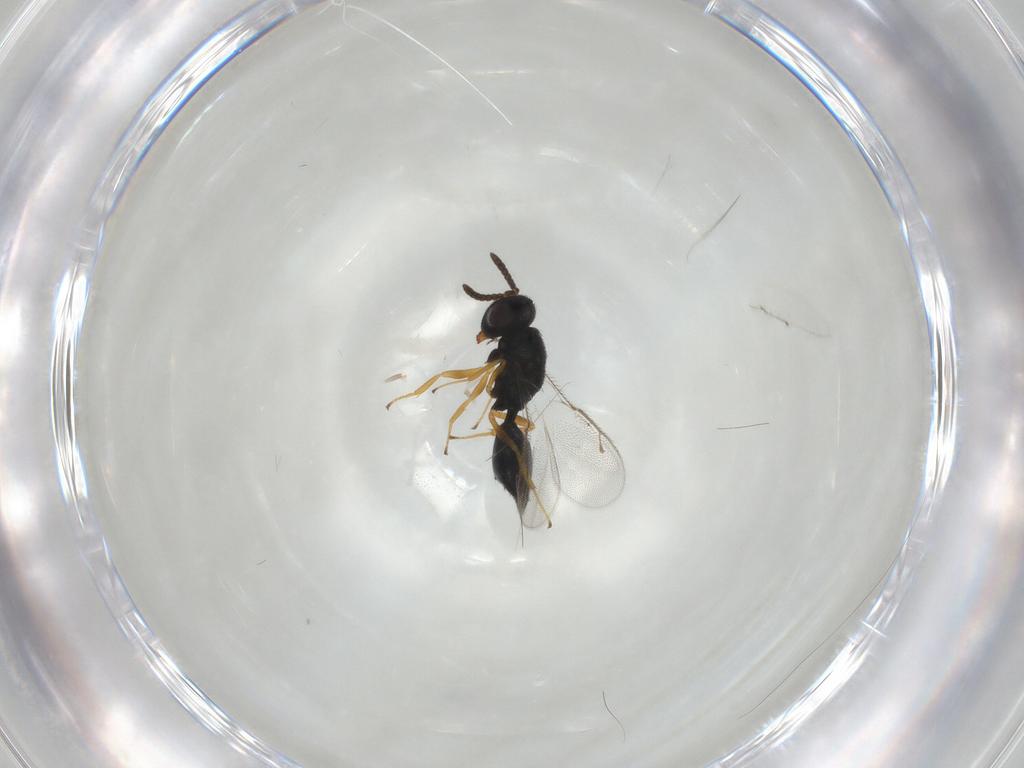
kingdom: Animalia
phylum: Arthropoda
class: Insecta
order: Hymenoptera
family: Pteromalidae
